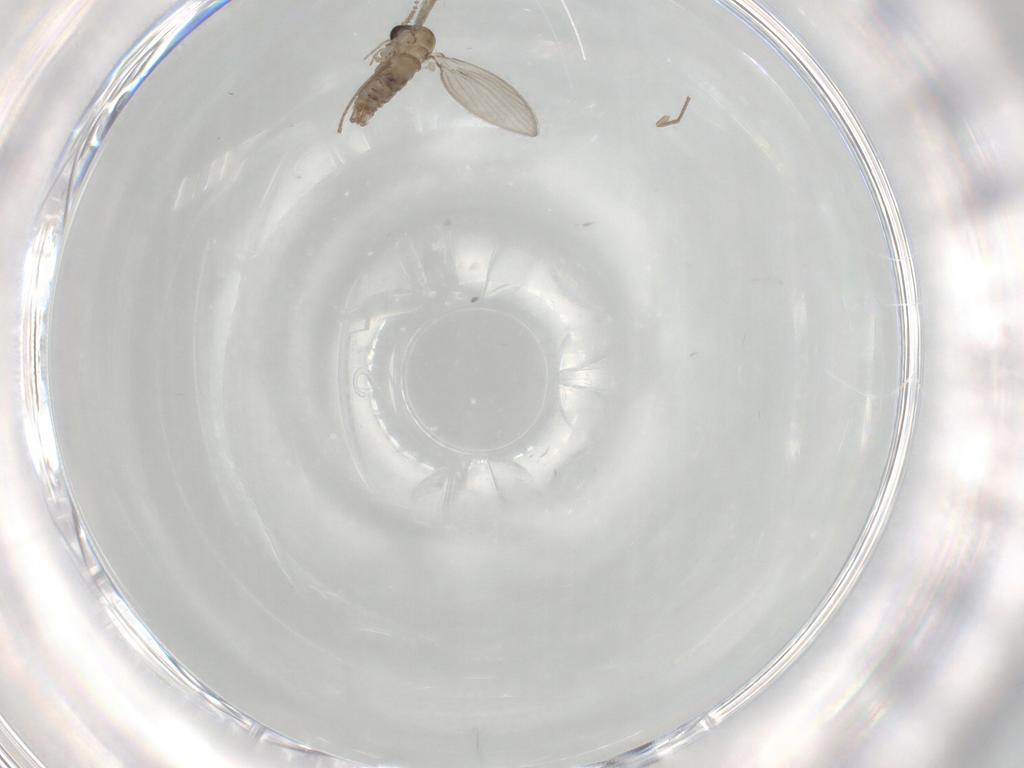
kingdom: Animalia
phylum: Arthropoda
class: Insecta
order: Diptera
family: Psychodidae
